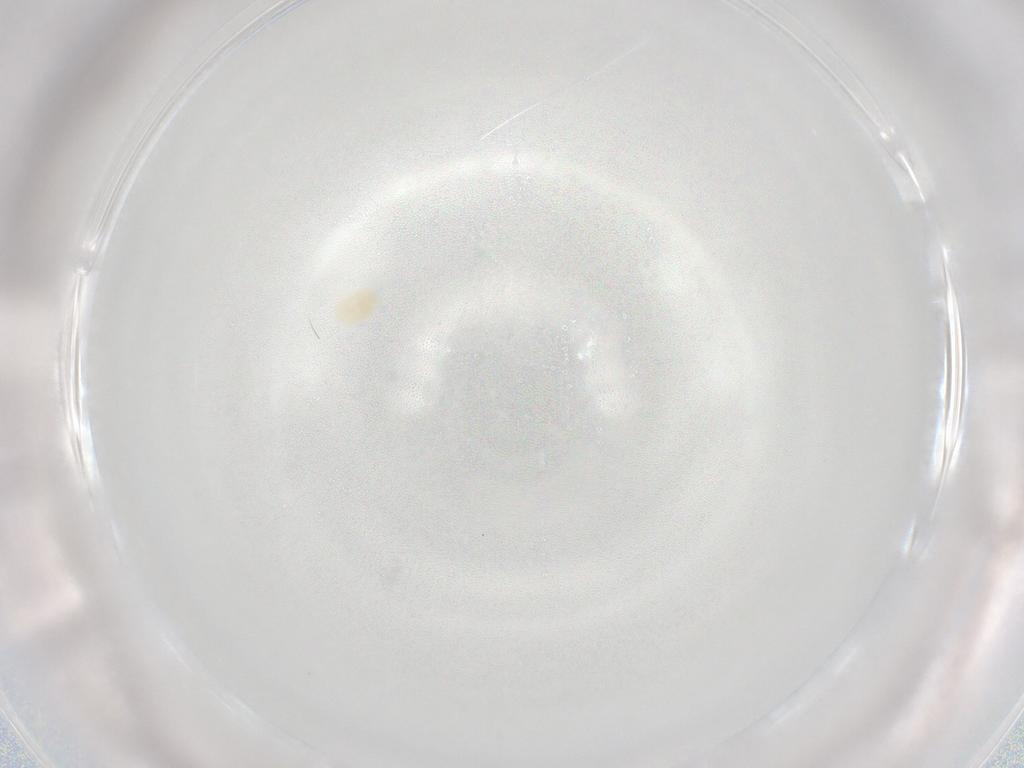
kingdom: Animalia
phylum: Arthropoda
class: Arachnida
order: Trombidiformes
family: Eupodidae
